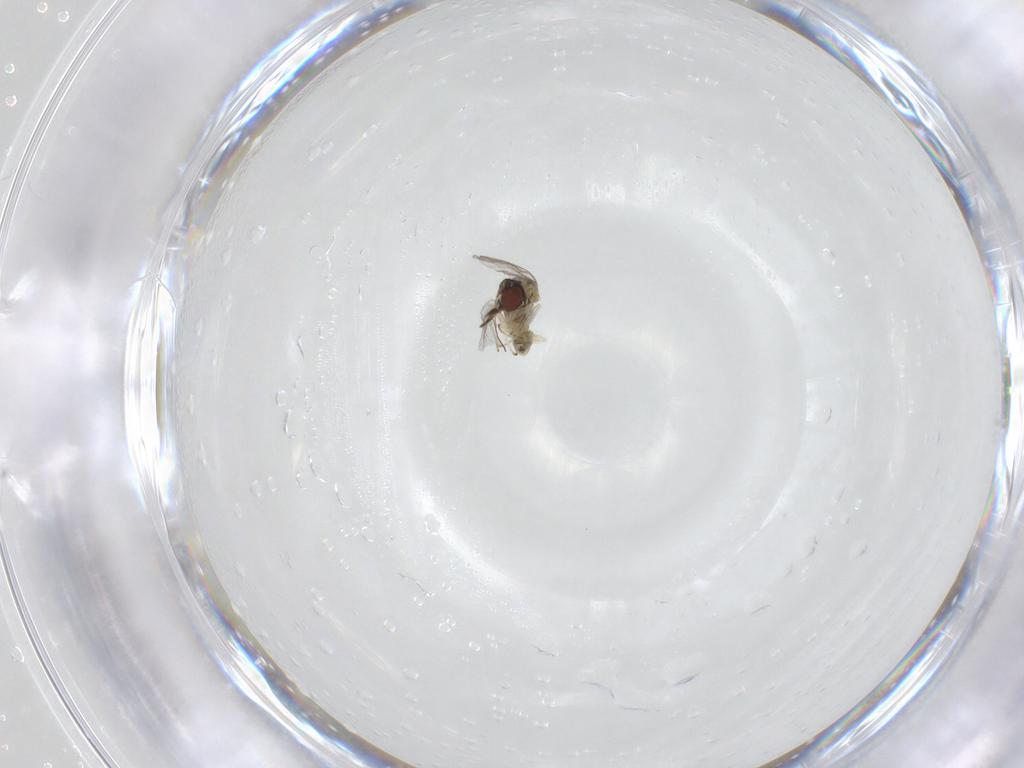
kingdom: Animalia
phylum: Arthropoda
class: Insecta
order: Diptera
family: Mythicomyiidae
